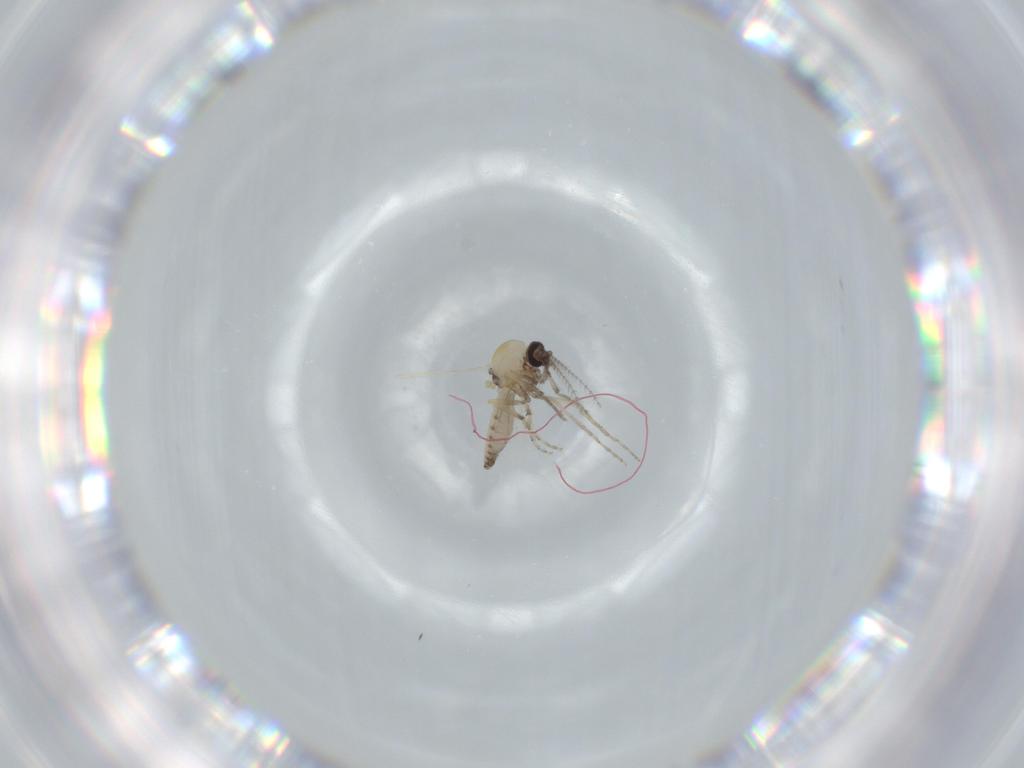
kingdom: Animalia
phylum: Arthropoda
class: Insecta
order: Diptera
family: Ceratopogonidae
